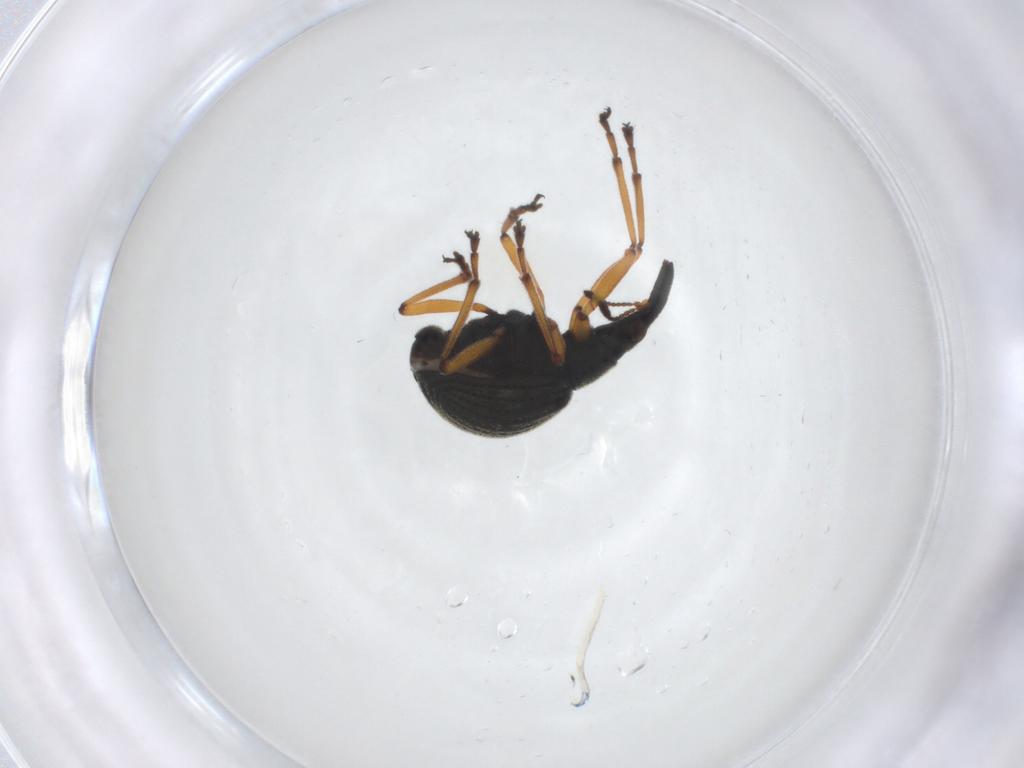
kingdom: Animalia
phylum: Arthropoda
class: Insecta
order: Coleoptera
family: Brentidae
